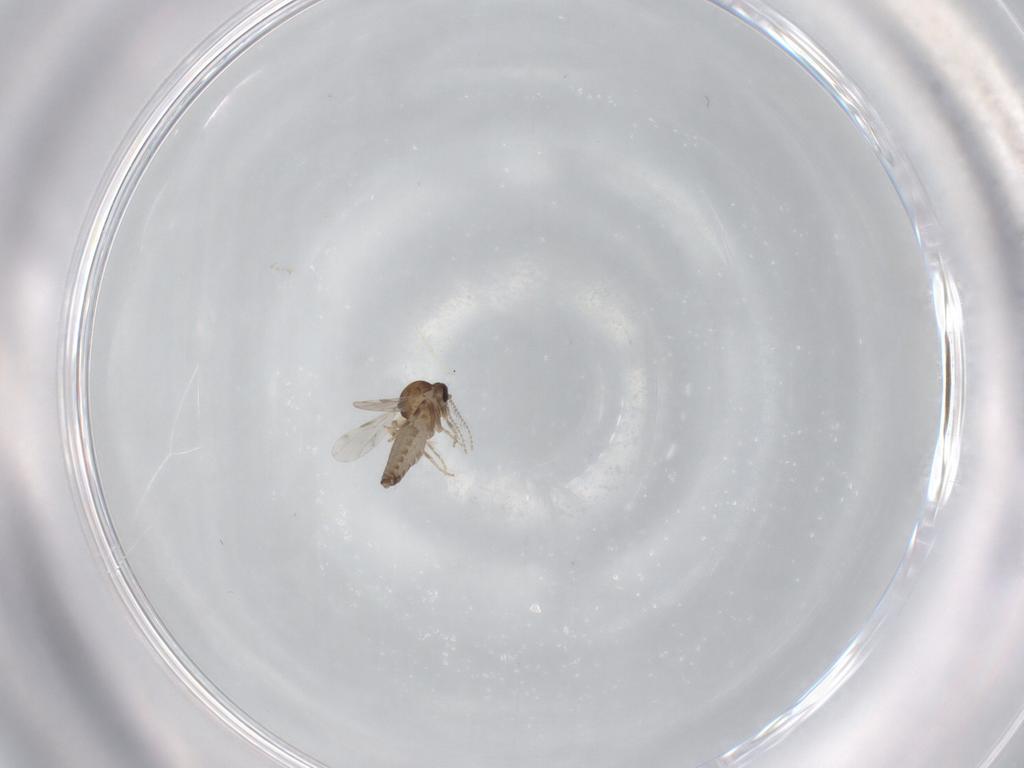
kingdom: Animalia
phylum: Arthropoda
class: Insecta
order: Diptera
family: Ceratopogonidae
